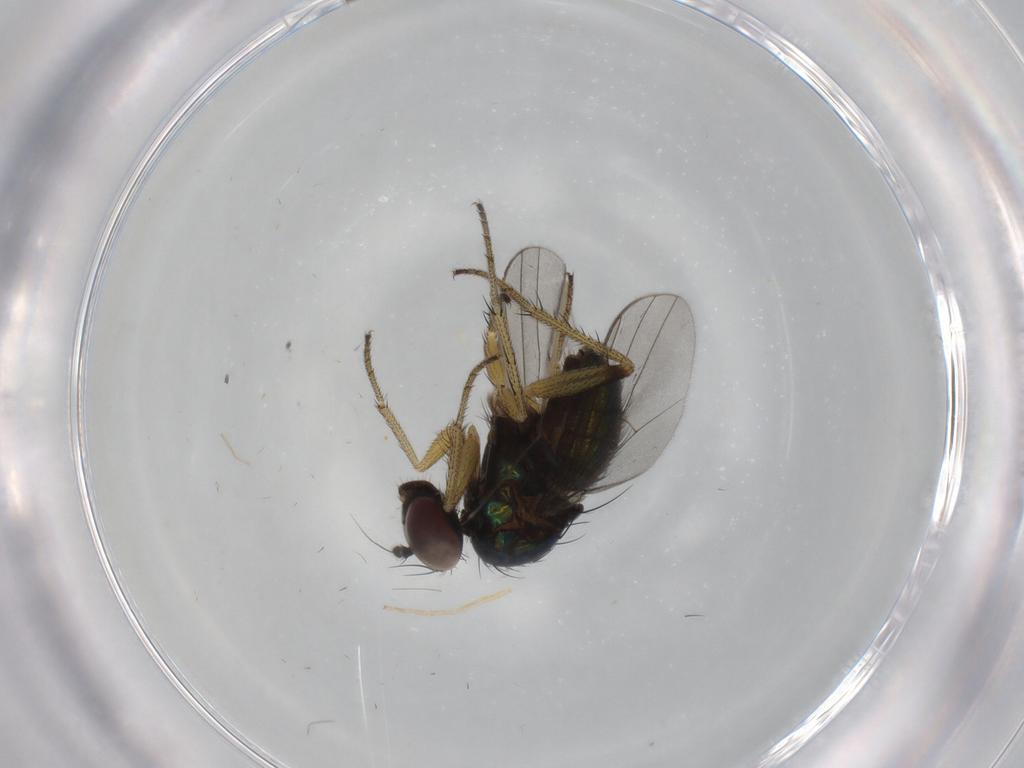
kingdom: Animalia
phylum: Arthropoda
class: Insecta
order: Diptera
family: Dolichopodidae
